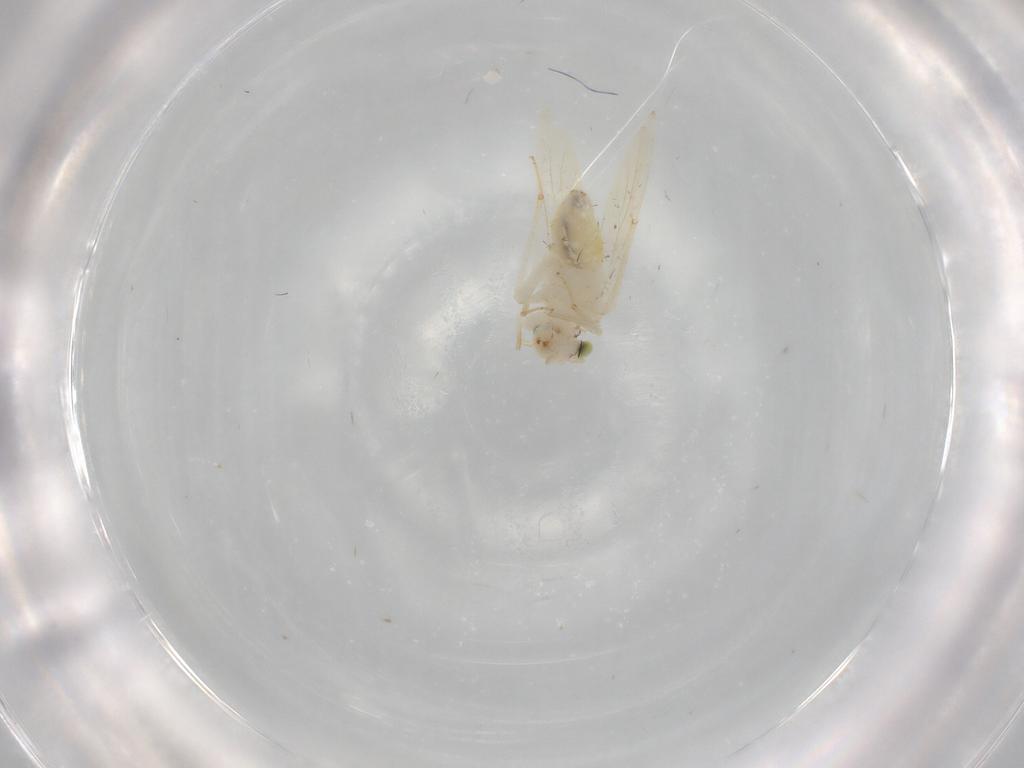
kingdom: Animalia
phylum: Arthropoda
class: Insecta
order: Psocodea
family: Lepidopsocidae
